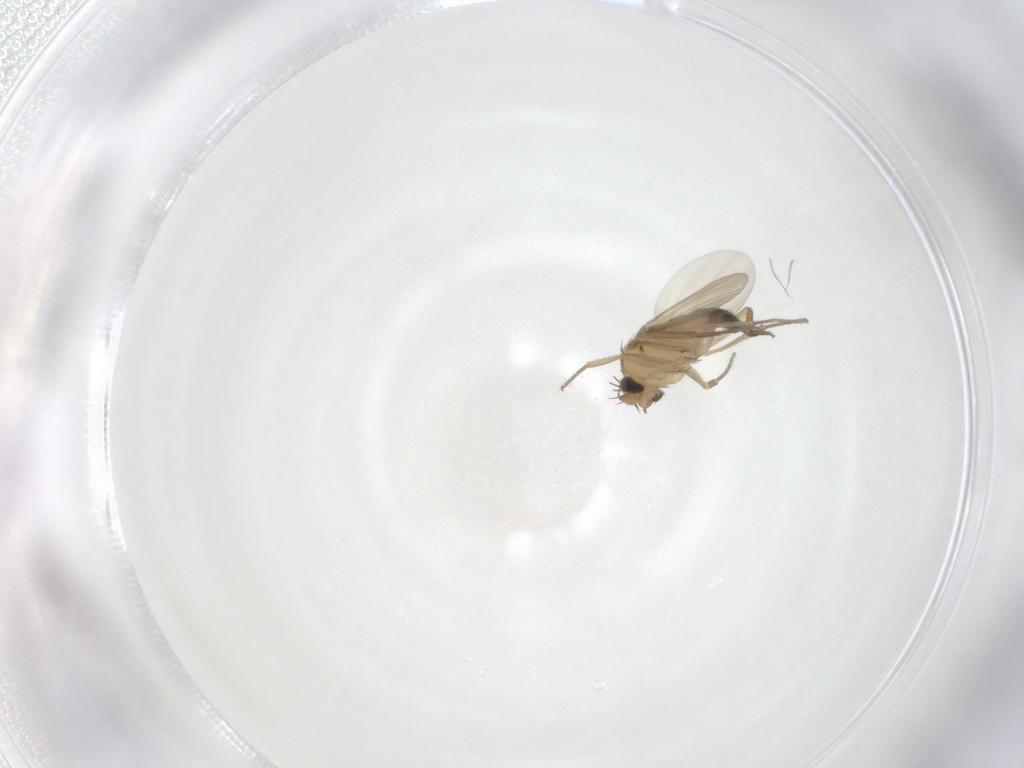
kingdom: Animalia
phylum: Arthropoda
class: Insecta
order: Diptera
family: Phoridae
